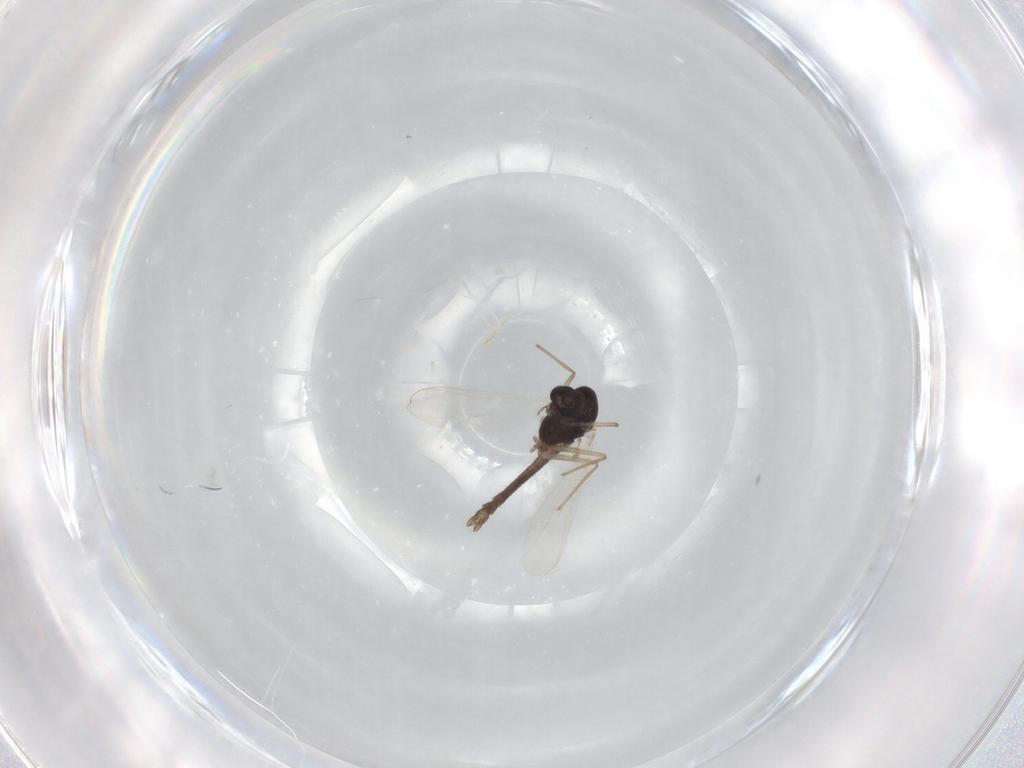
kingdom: Animalia
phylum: Arthropoda
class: Insecta
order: Diptera
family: Chironomidae
